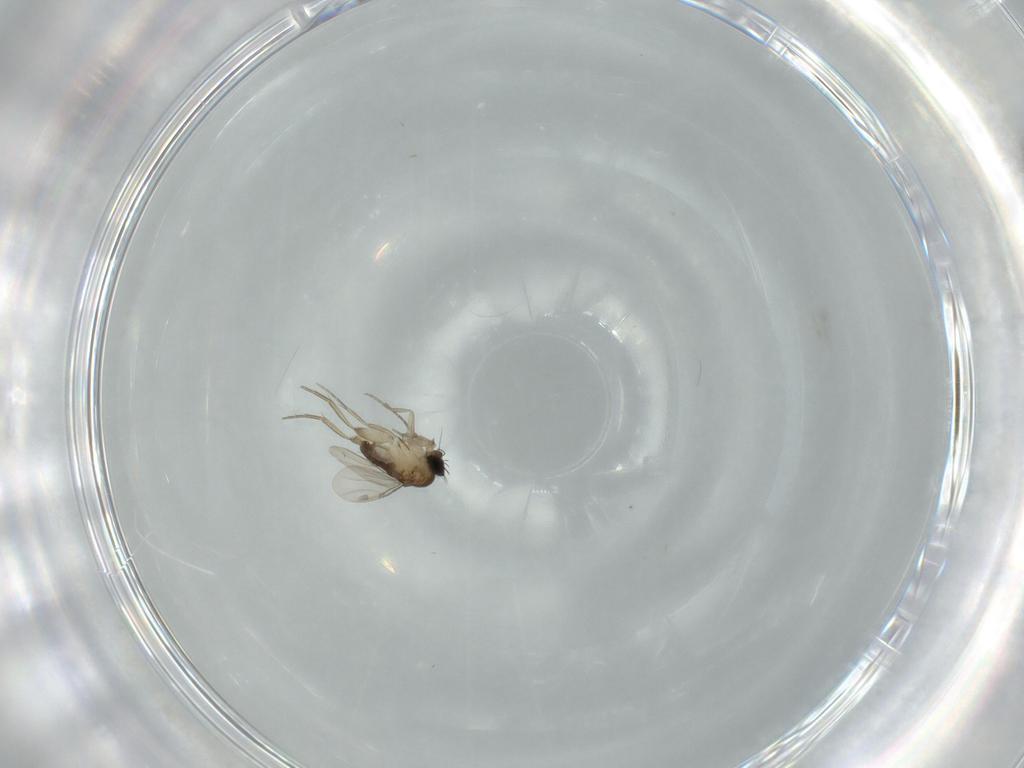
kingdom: Animalia
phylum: Arthropoda
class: Insecta
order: Diptera
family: Phoridae
